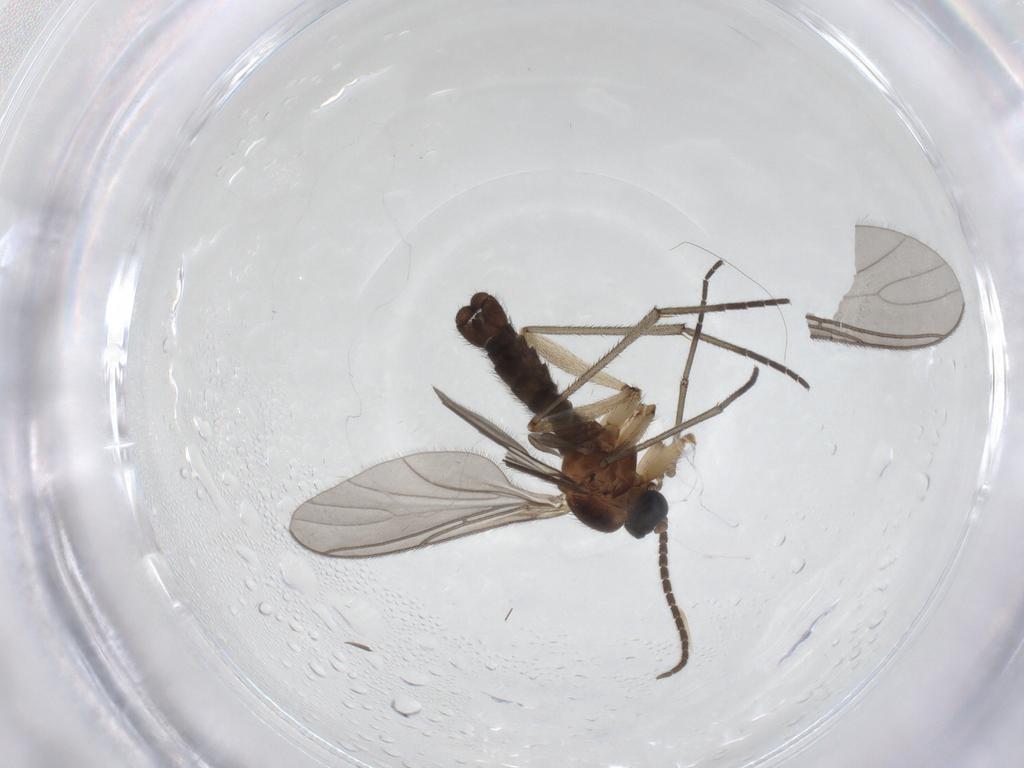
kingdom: Animalia
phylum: Arthropoda
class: Insecta
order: Diptera
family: Sciaridae
